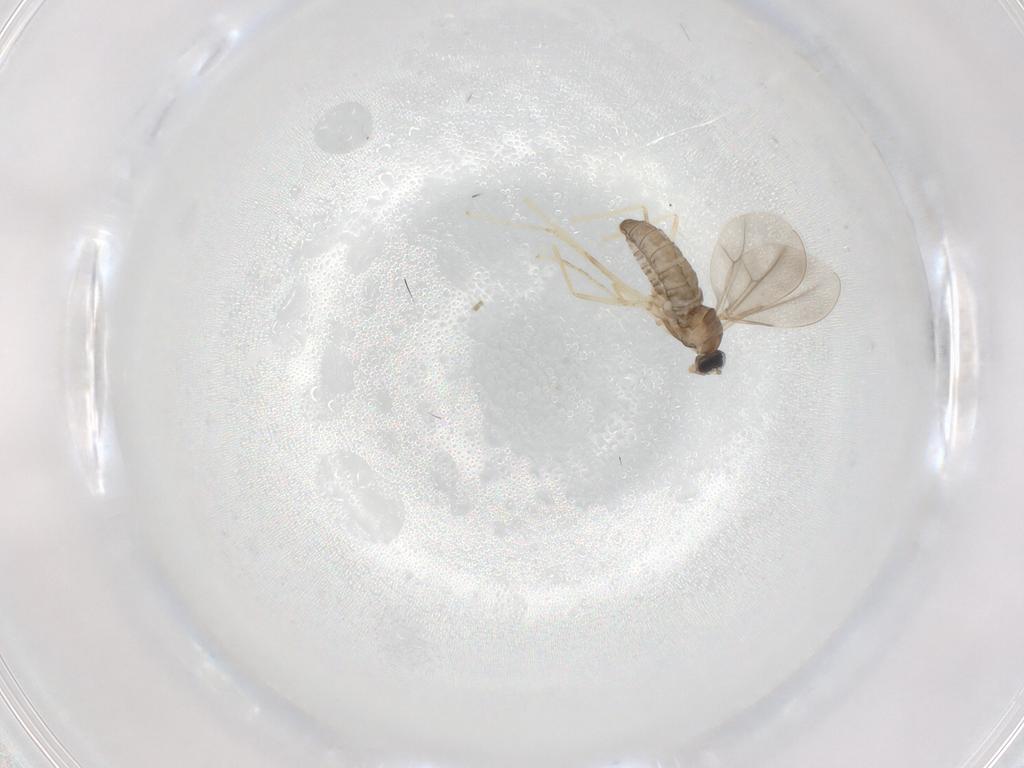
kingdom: Animalia
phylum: Arthropoda
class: Insecta
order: Diptera
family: Cecidomyiidae
